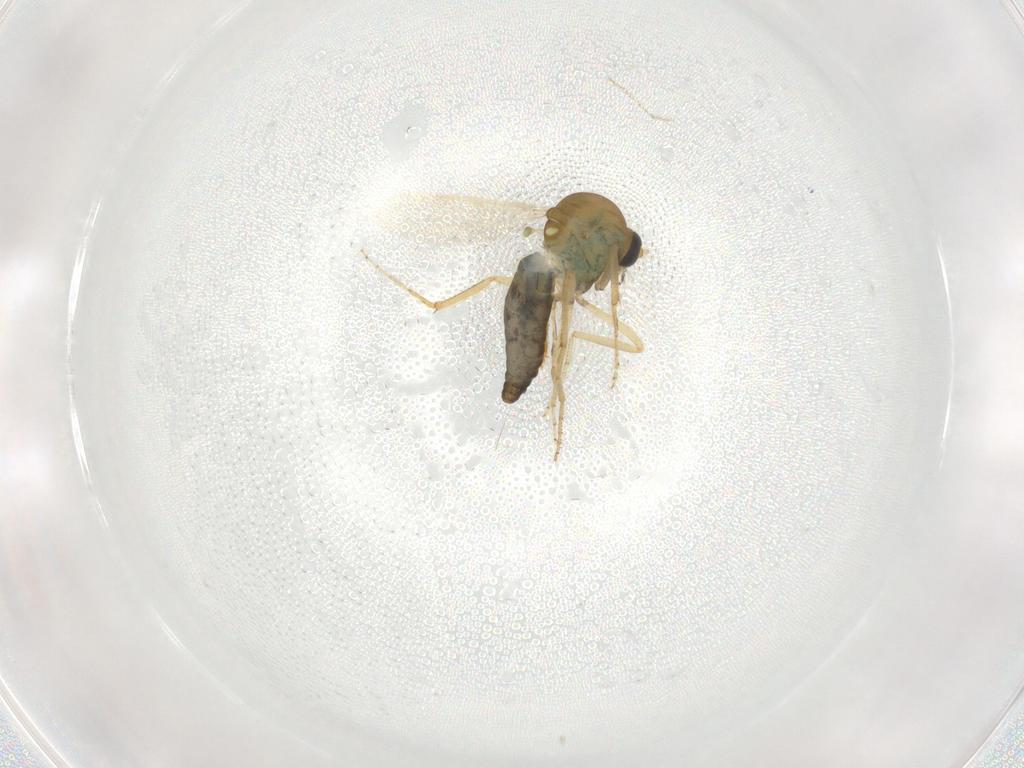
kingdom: Animalia
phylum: Arthropoda
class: Insecta
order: Diptera
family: Ceratopogonidae
